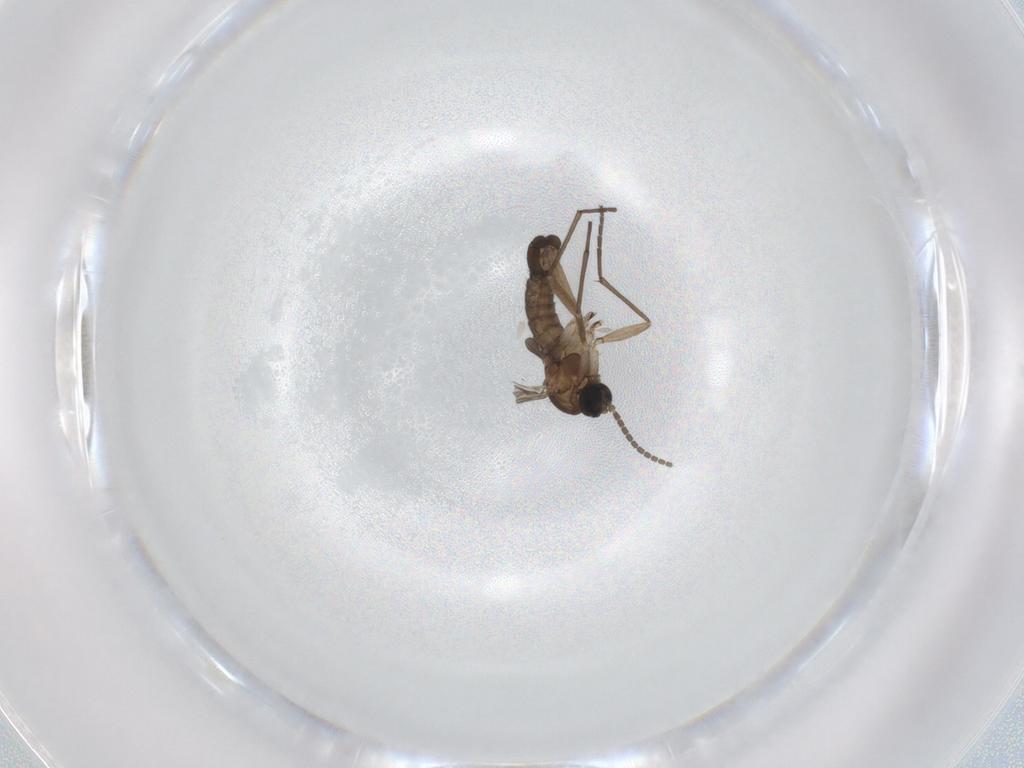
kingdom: Animalia
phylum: Arthropoda
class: Insecta
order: Diptera
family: Sciaridae
